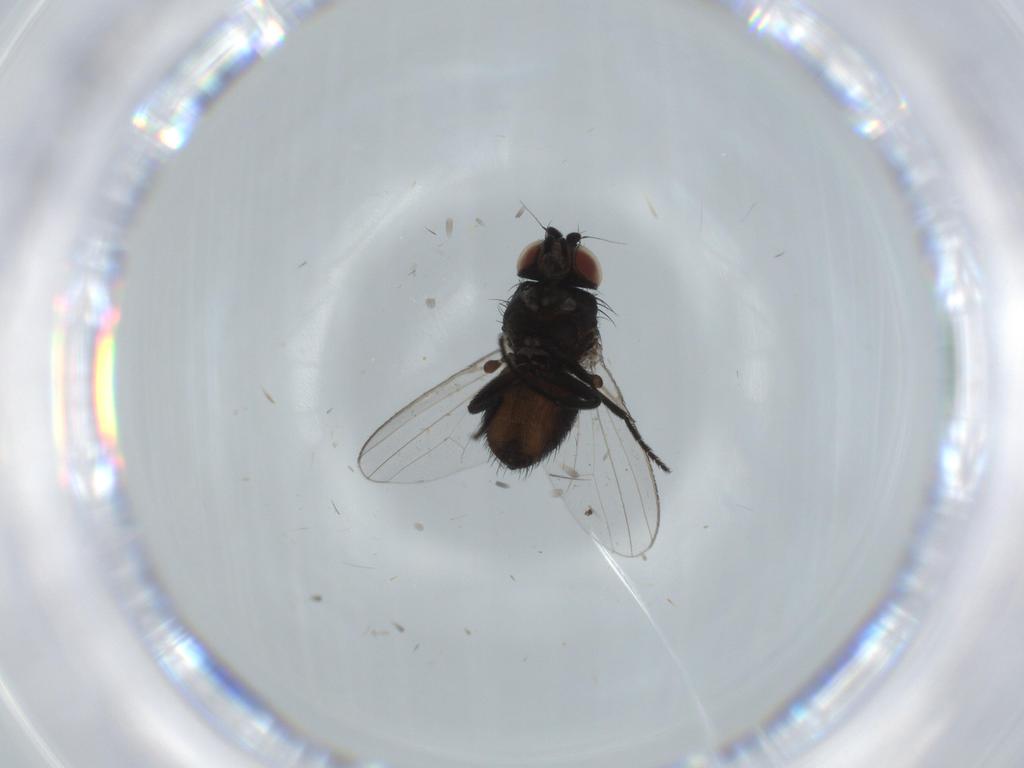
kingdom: Animalia
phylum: Arthropoda
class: Insecta
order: Diptera
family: Milichiidae
